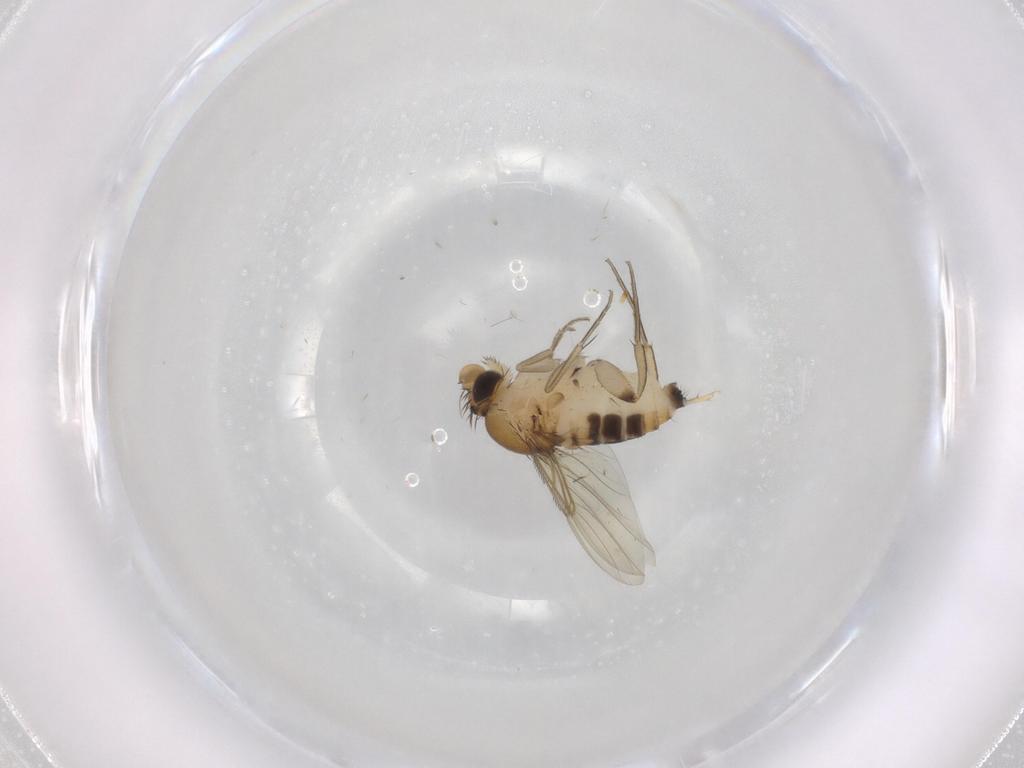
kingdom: Animalia
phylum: Arthropoda
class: Insecta
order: Diptera
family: Phoridae
